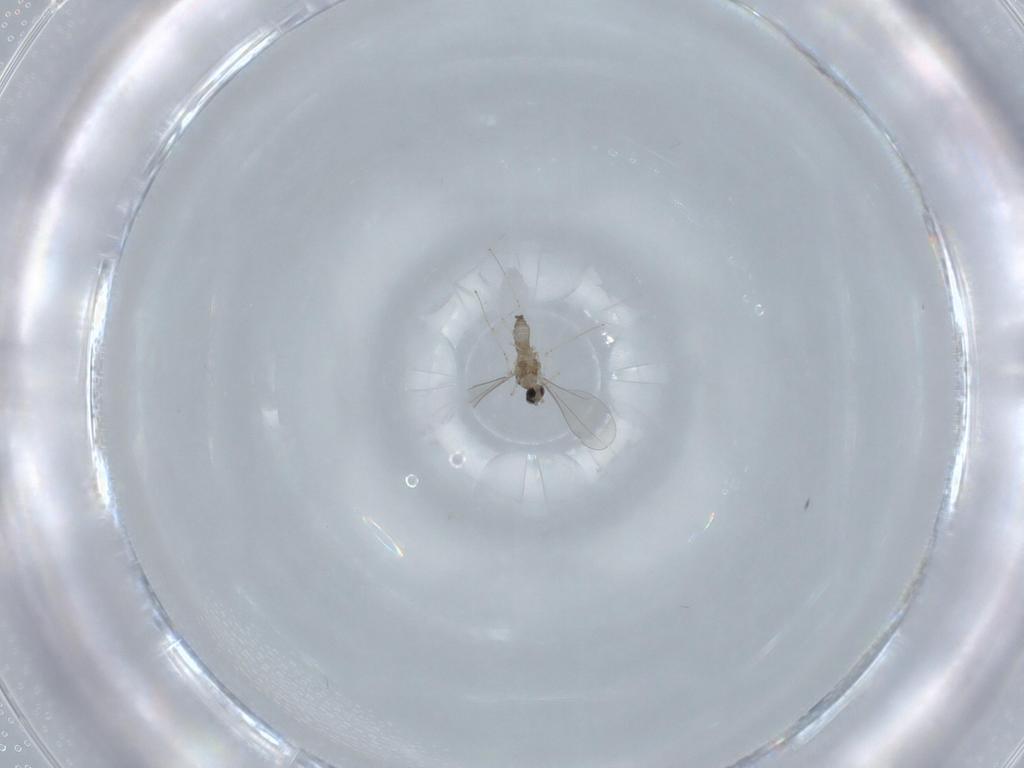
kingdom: Animalia
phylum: Arthropoda
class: Insecta
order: Diptera
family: Cecidomyiidae
